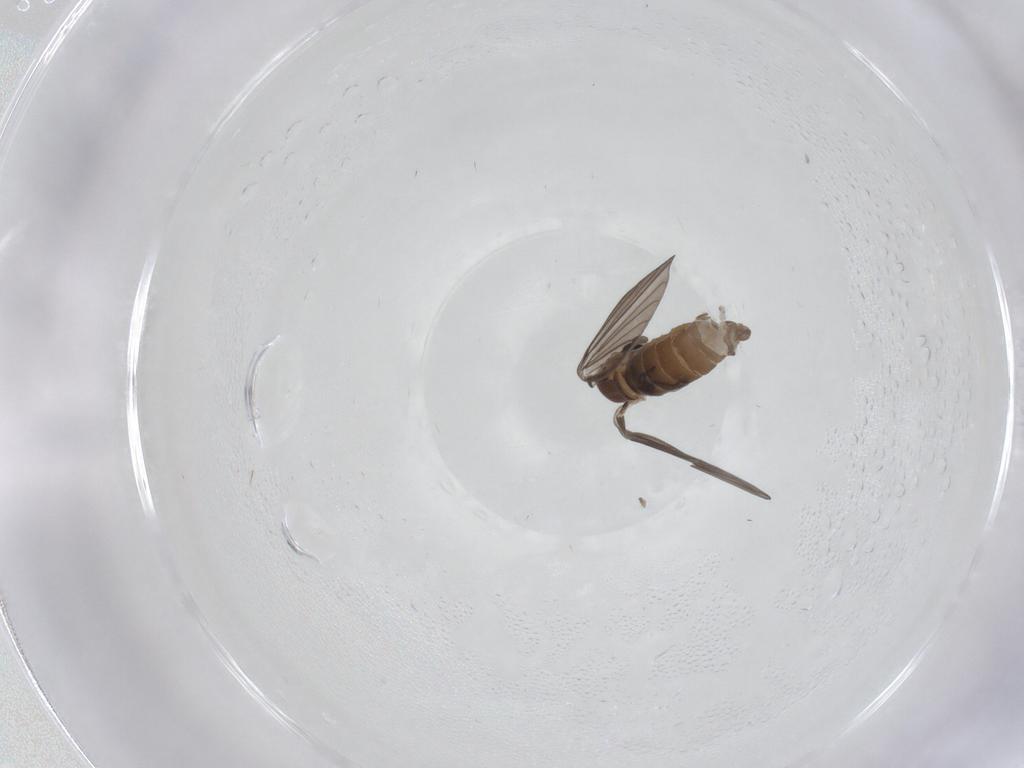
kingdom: Animalia
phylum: Arthropoda
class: Insecta
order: Diptera
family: Psychodidae
